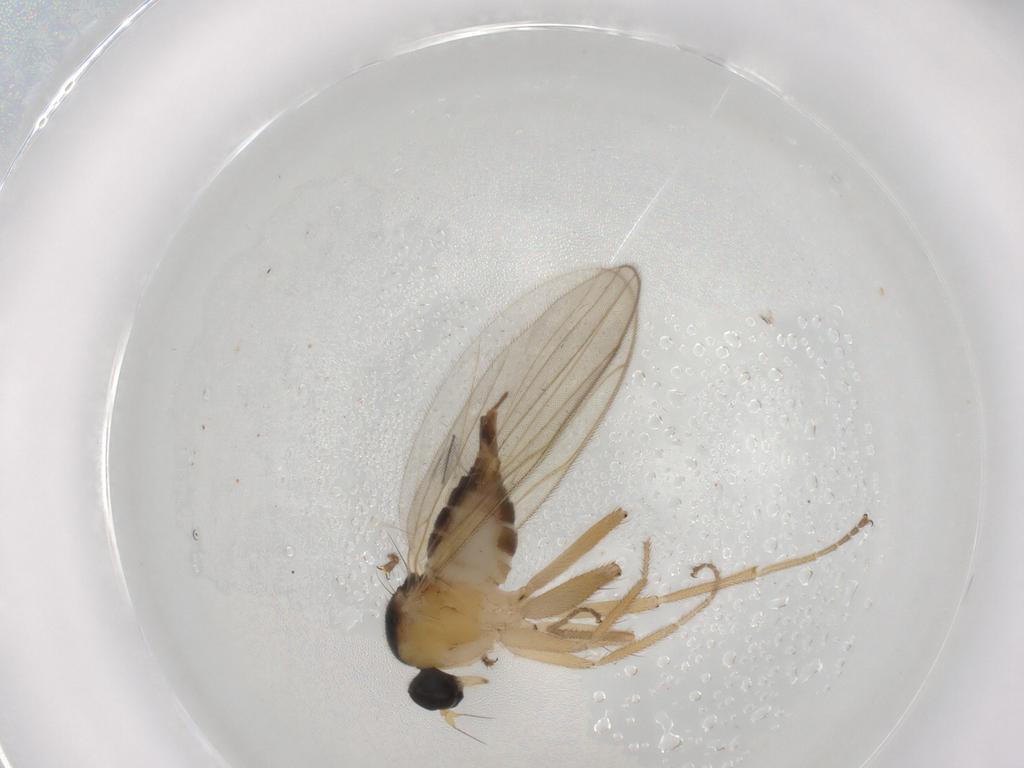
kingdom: Animalia
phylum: Arthropoda
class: Insecta
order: Diptera
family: Hybotidae
